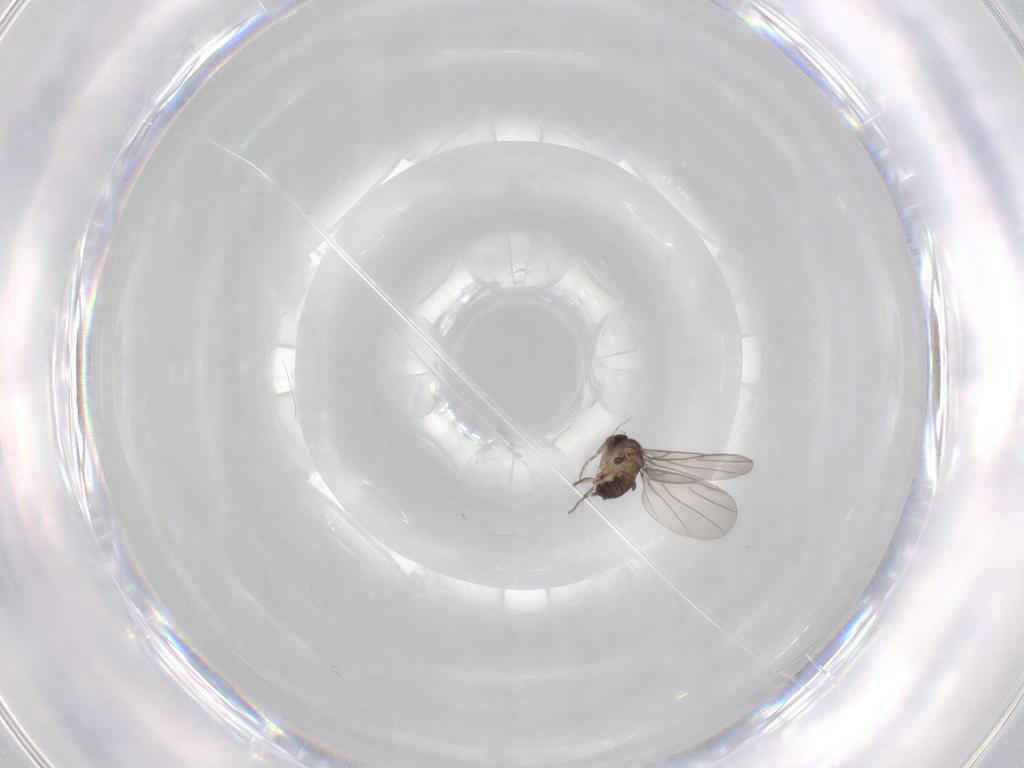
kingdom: Animalia
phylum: Arthropoda
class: Insecta
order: Diptera
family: Phoridae
